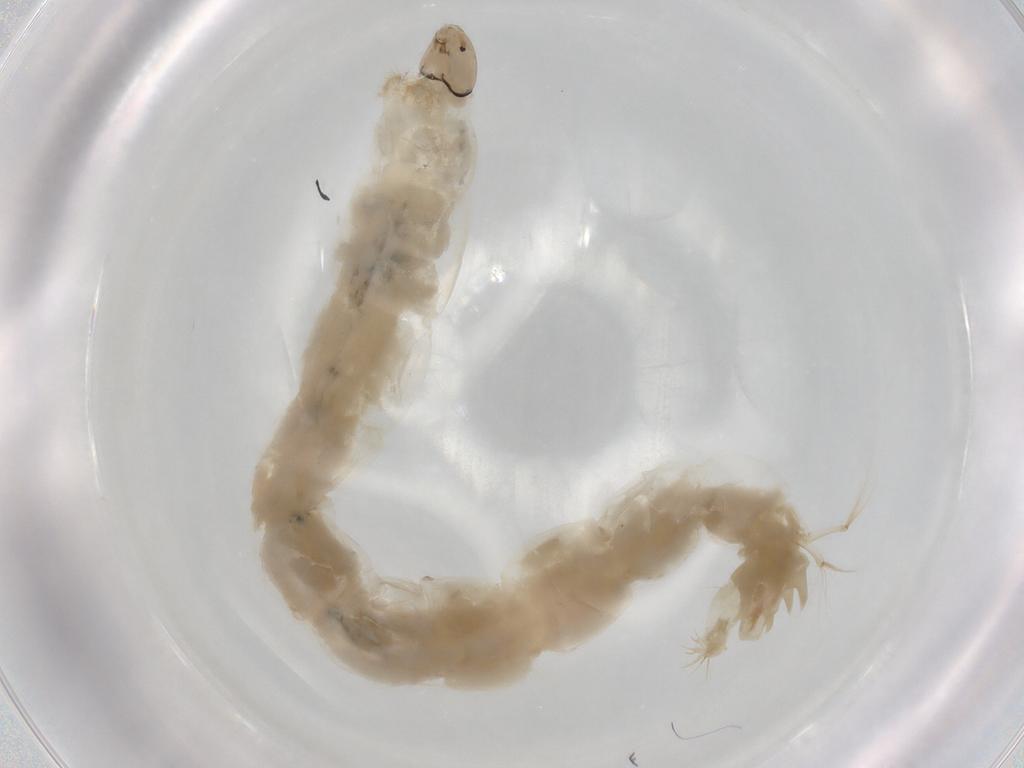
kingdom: Animalia
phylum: Arthropoda
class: Insecta
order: Diptera
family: Chironomidae
